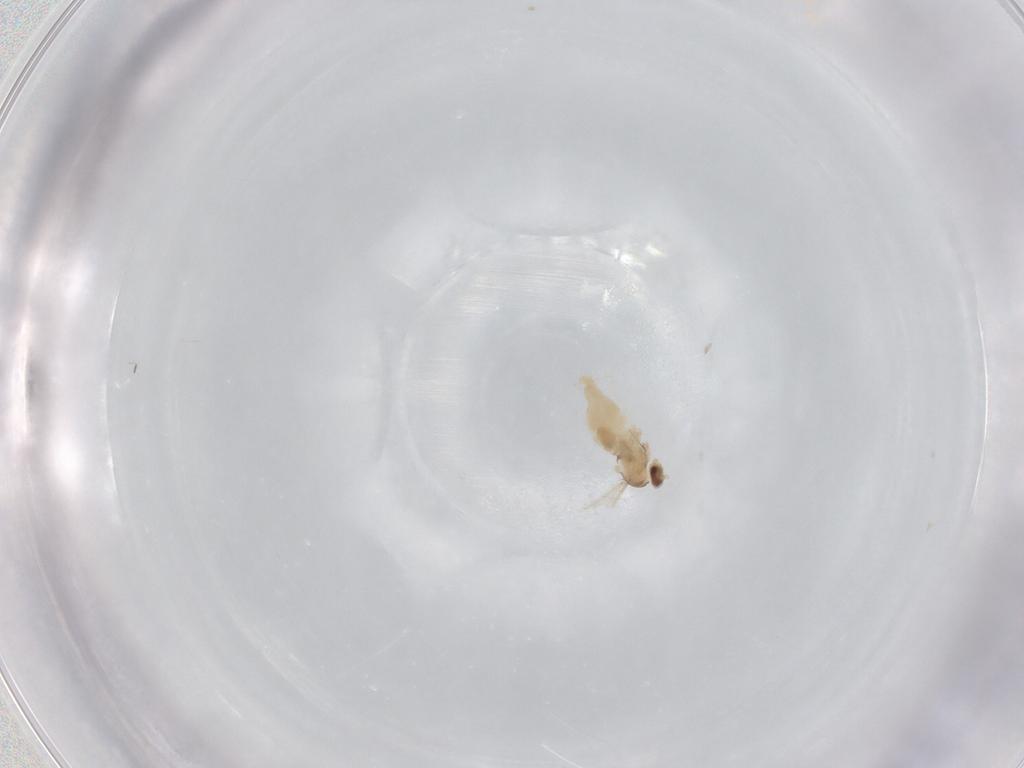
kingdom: Animalia
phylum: Arthropoda
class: Insecta
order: Diptera
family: Cecidomyiidae
